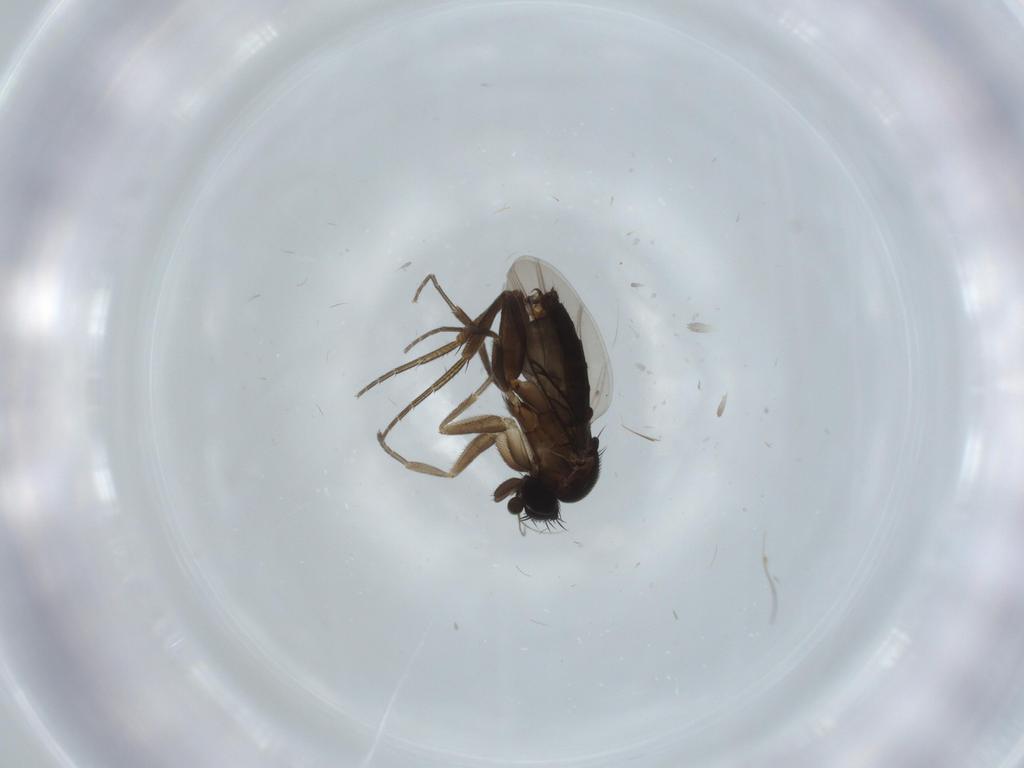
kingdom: Animalia
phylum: Arthropoda
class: Insecta
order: Diptera
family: Phoridae
